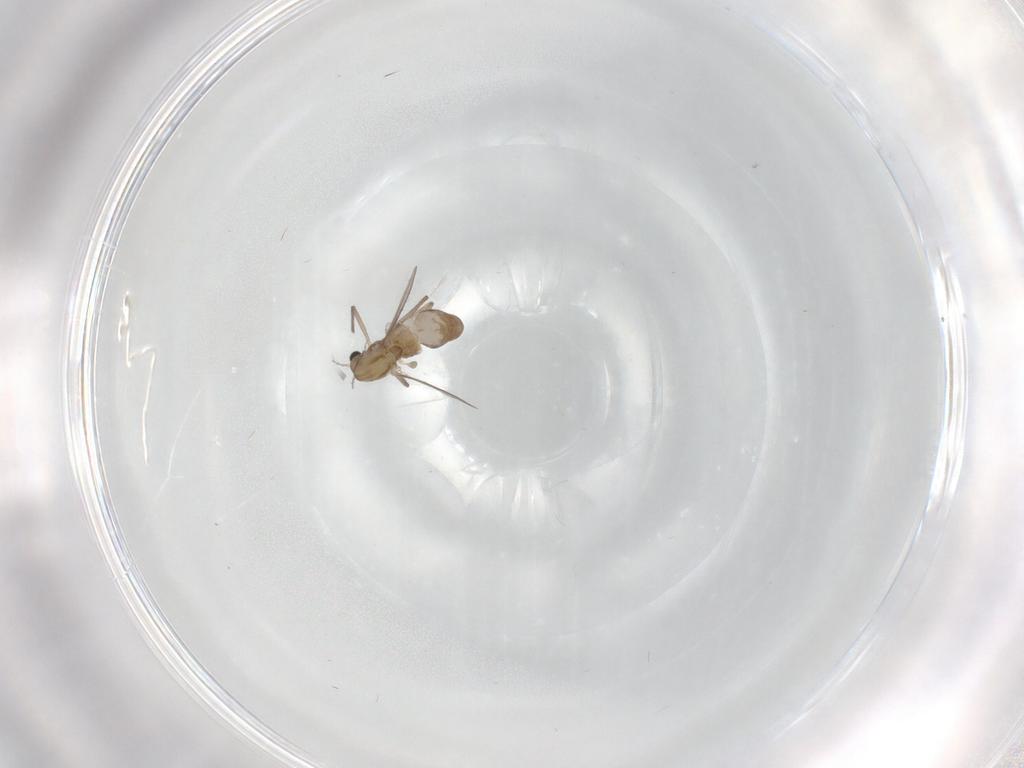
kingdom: Animalia
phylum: Arthropoda
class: Insecta
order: Diptera
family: Chironomidae
